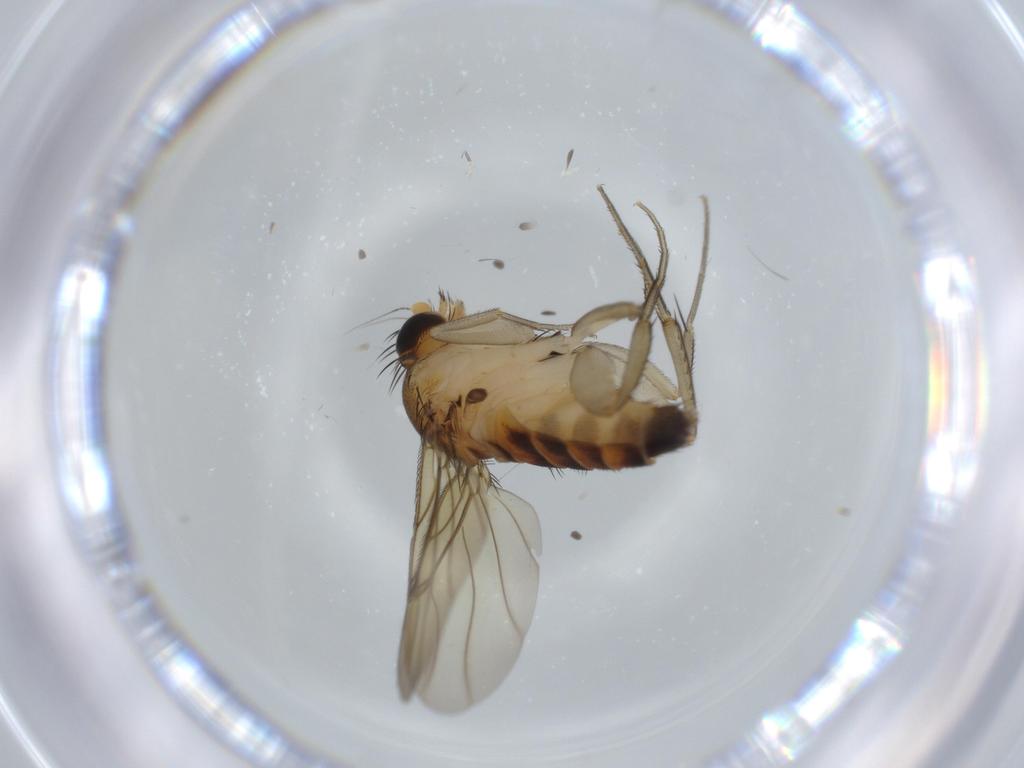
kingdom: Animalia
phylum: Arthropoda
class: Insecta
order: Diptera
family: Phoridae
